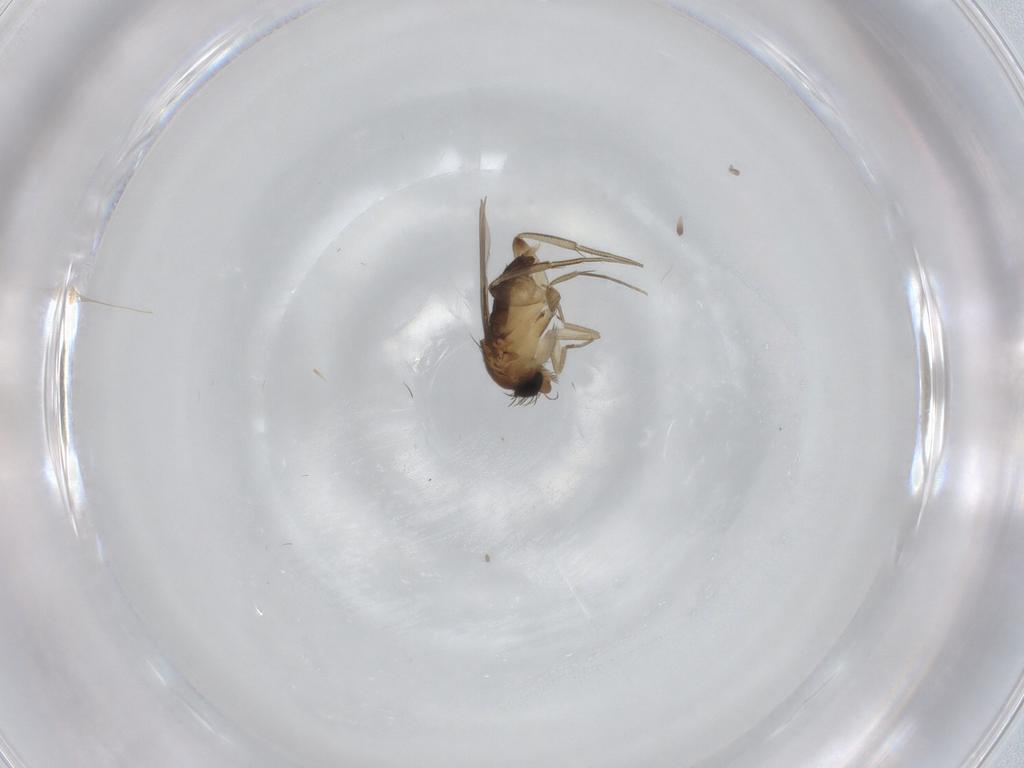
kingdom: Animalia
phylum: Arthropoda
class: Insecta
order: Diptera
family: Phoridae
